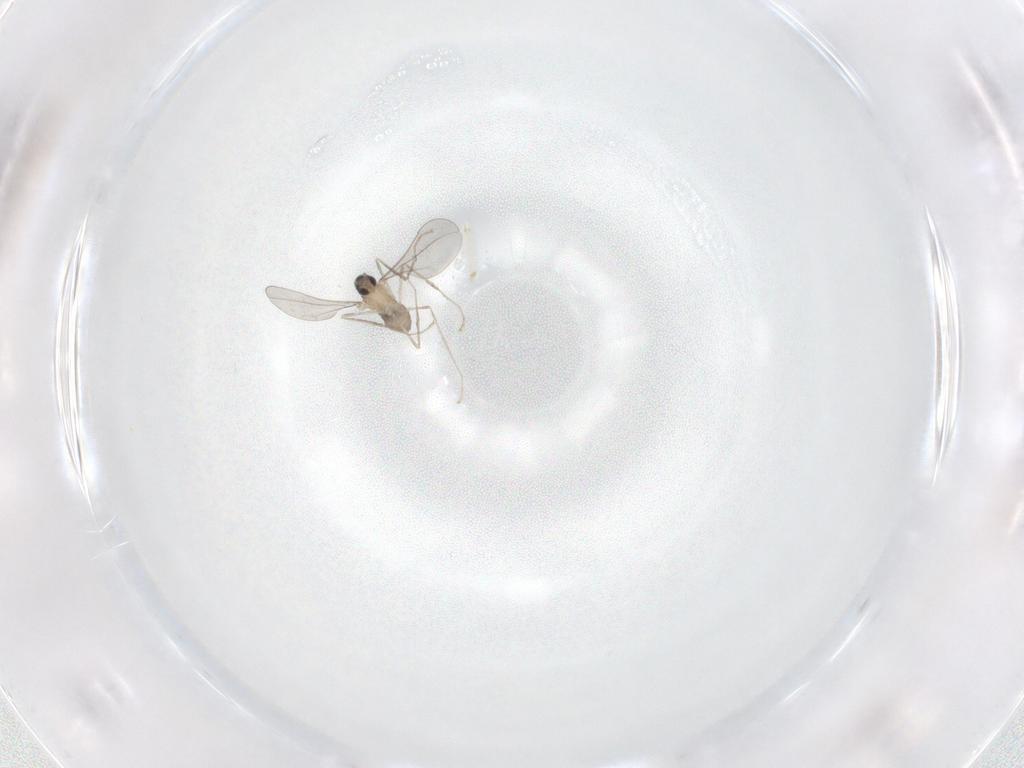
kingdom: Animalia
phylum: Arthropoda
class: Insecta
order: Diptera
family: Cecidomyiidae
